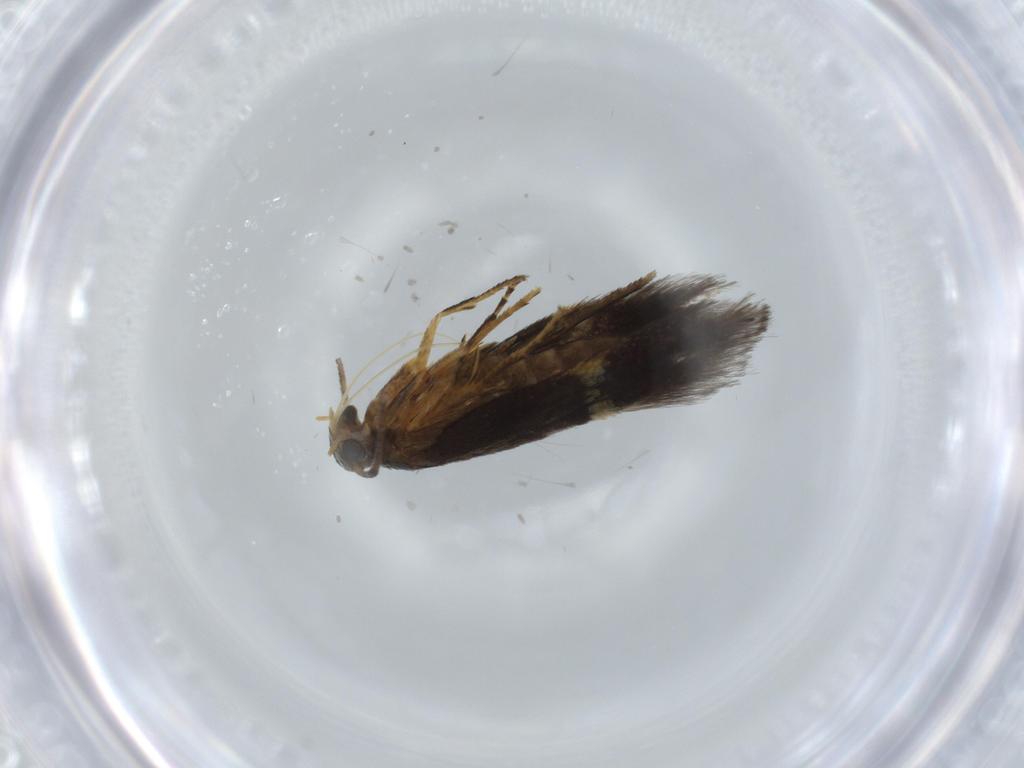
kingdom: Animalia
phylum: Arthropoda
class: Insecta
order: Lepidoptera
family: Heliozelidae
